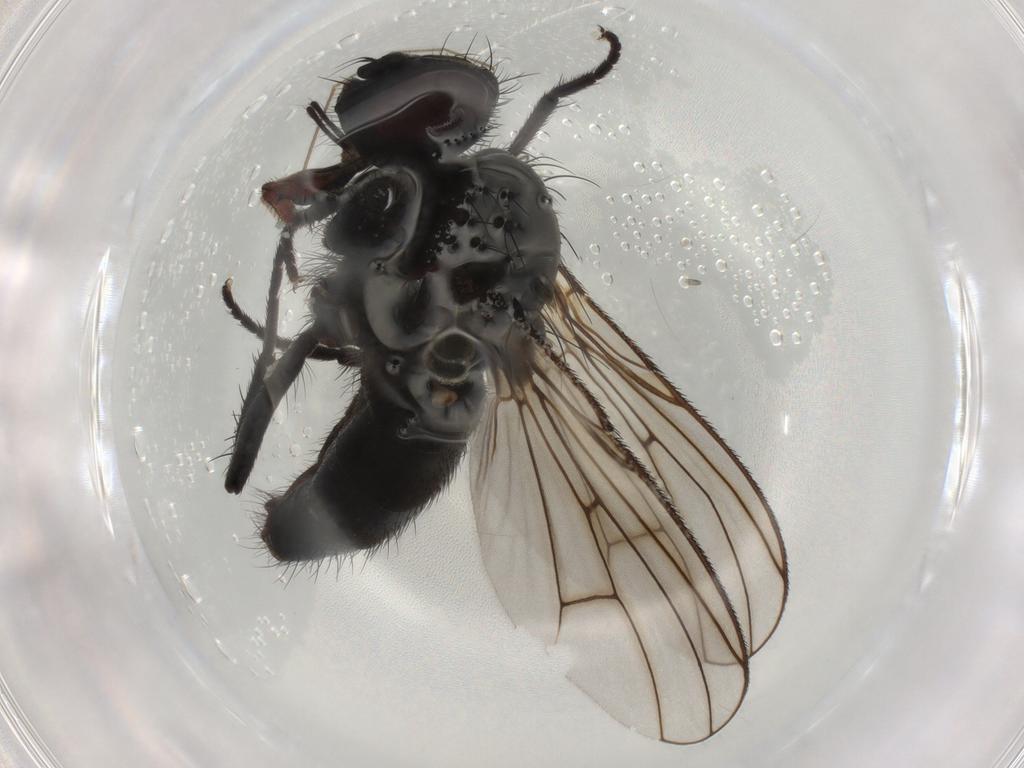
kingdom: Animalia
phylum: Arthropoda
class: Insecta
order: Diptera
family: Chironomidae
